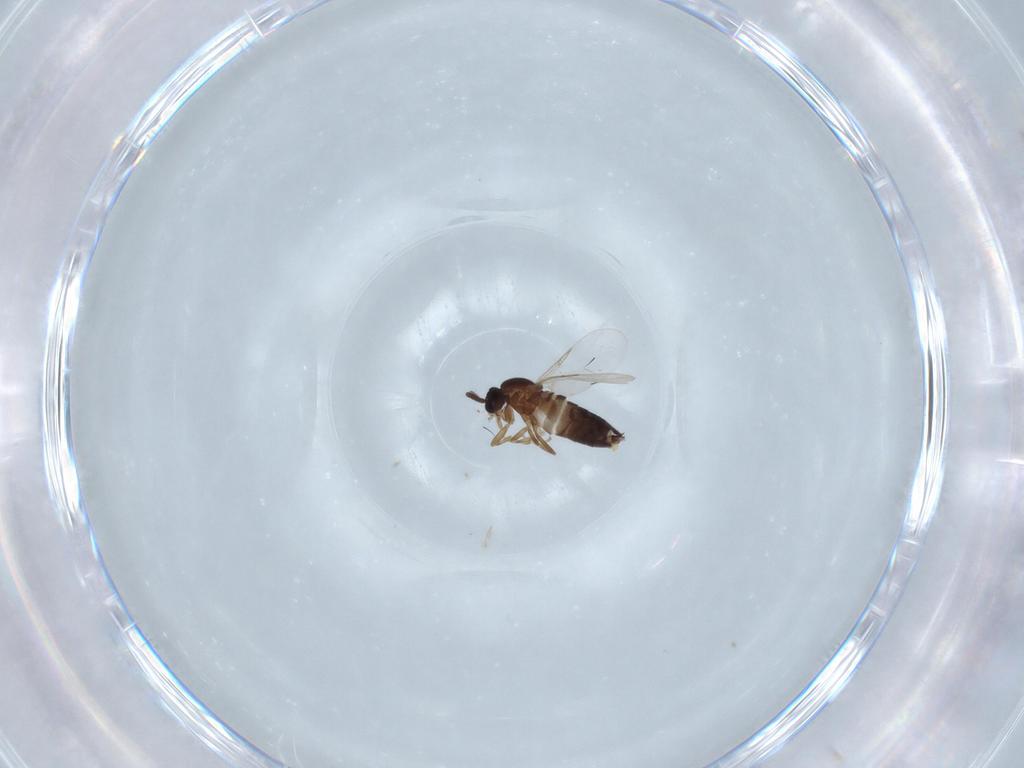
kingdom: Animalia
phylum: Arthropoda
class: Insecta
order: Diptera
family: Scatopsidae
